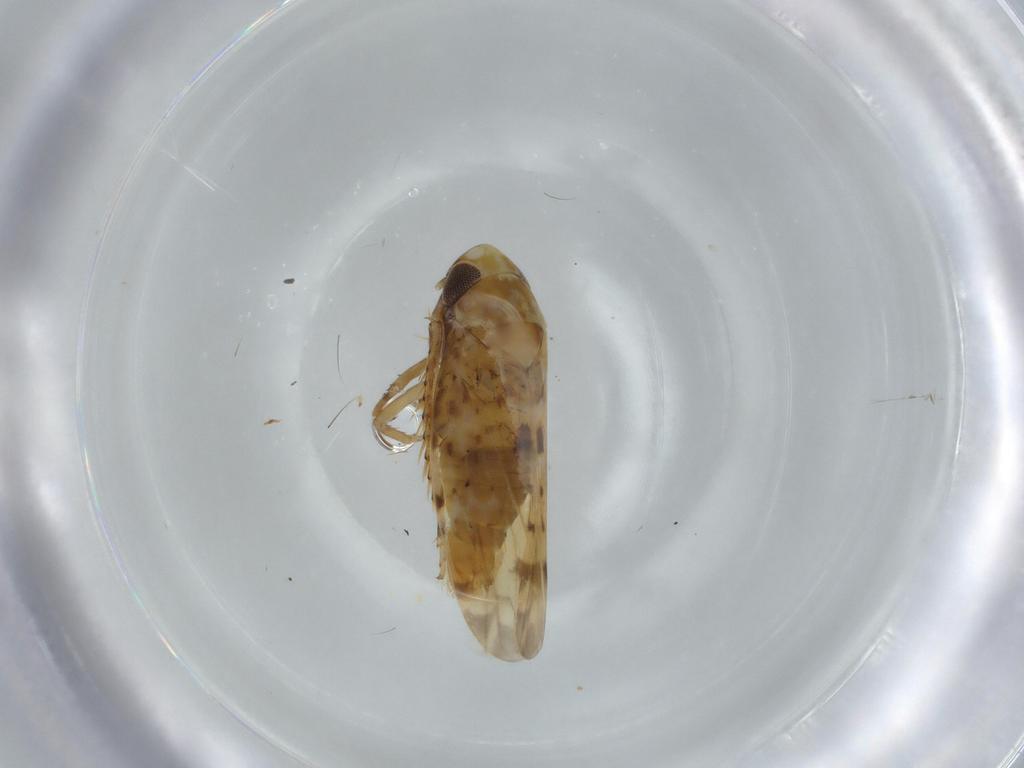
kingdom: Animalia
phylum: Arthropoda
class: Insecta
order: Hemiptera
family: Cicadellidae
